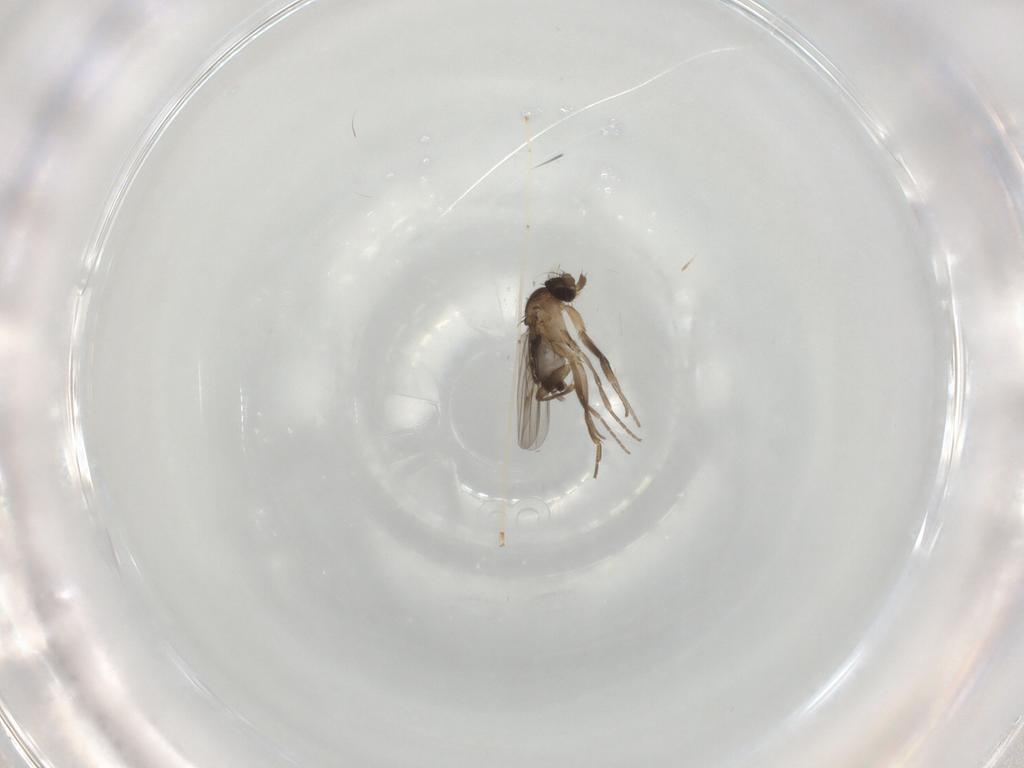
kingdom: Animalia
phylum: Arthropoda
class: Insecta
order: Diptera
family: Phoridae
